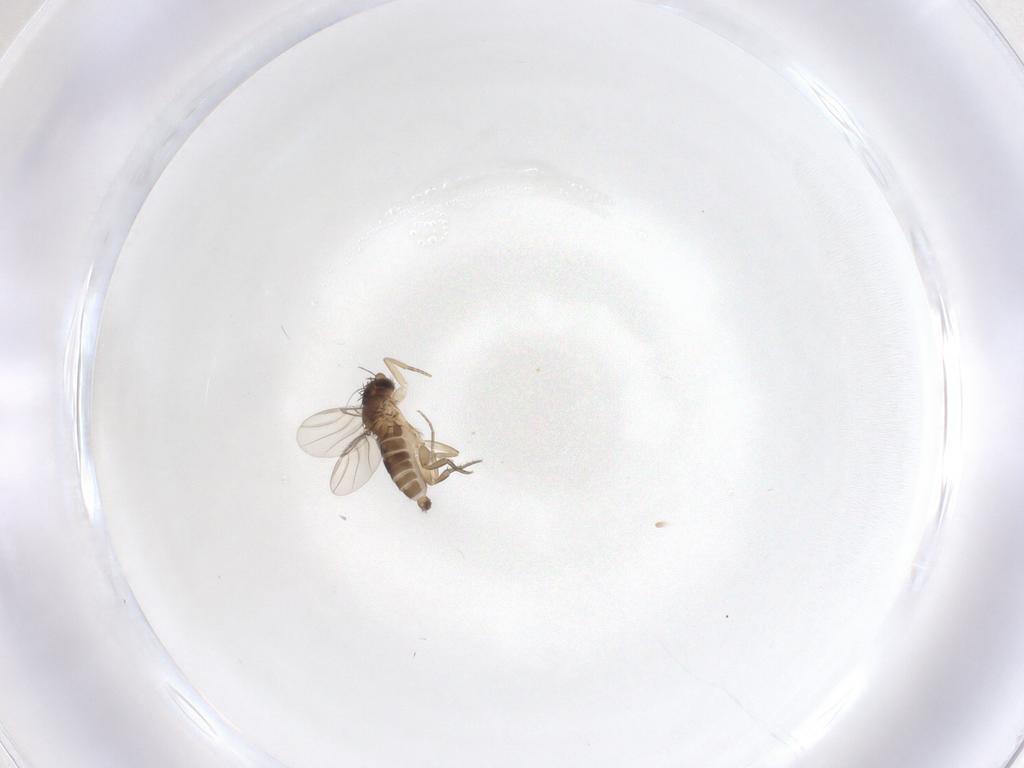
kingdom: Animalia
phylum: Arthropoda
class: Insecta
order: Diptera
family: Phoridae
